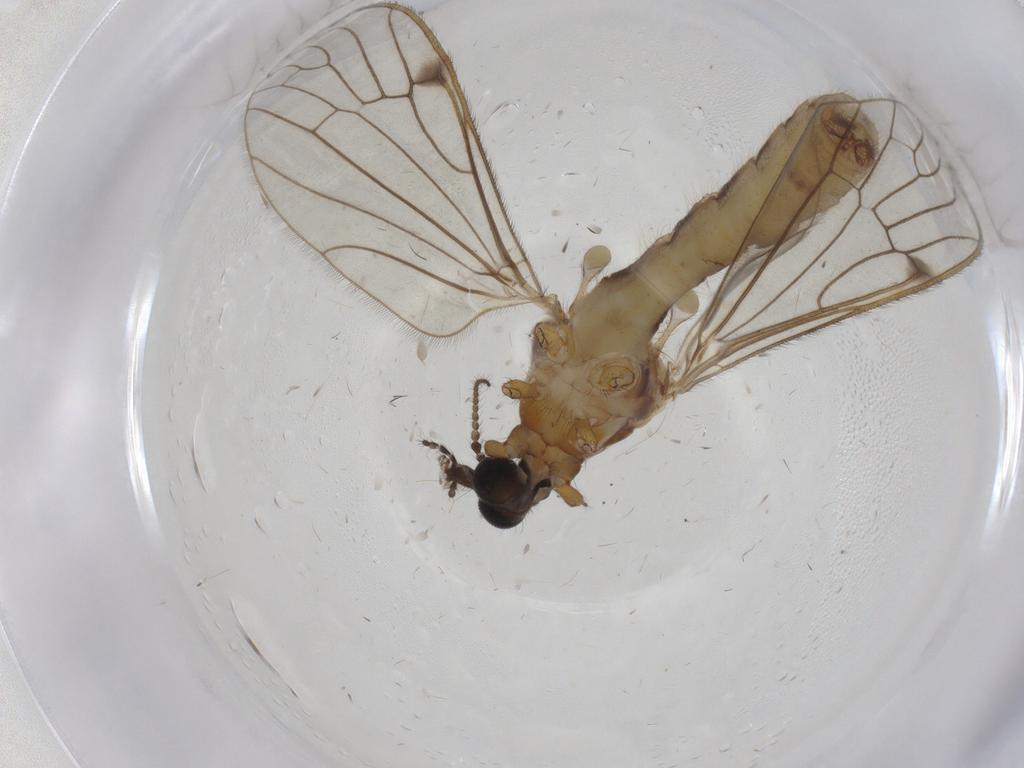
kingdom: Animalia
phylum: Arthropoda
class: Insecta
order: Diptera
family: Psychodidae
